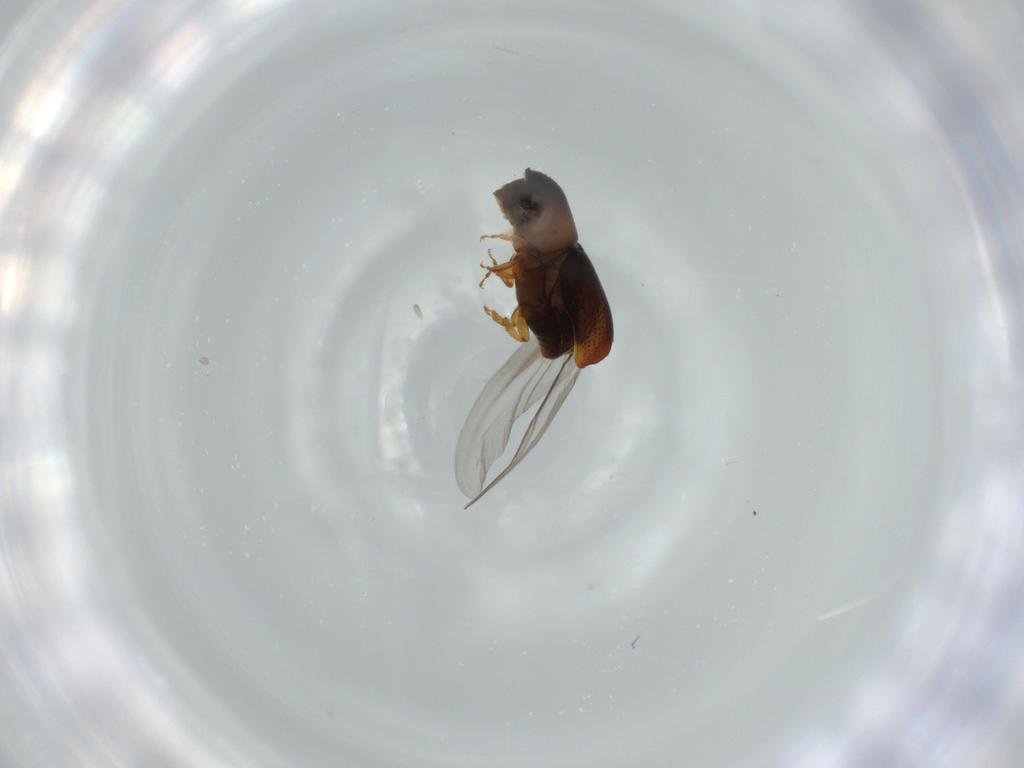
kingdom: Animalia
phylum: Arthropoda
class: Insecta
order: Coleoptera
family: Curculionidae
